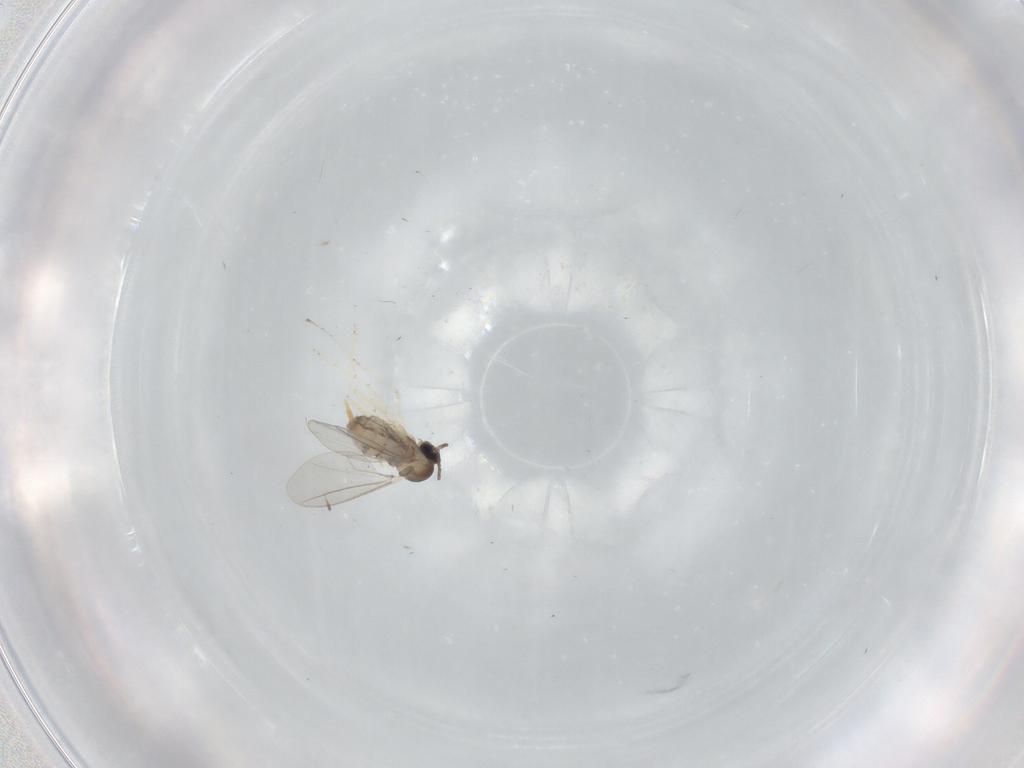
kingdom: Animalia
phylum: Arthropoda
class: Insecta
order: Diptera
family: Cecidomyiidae
